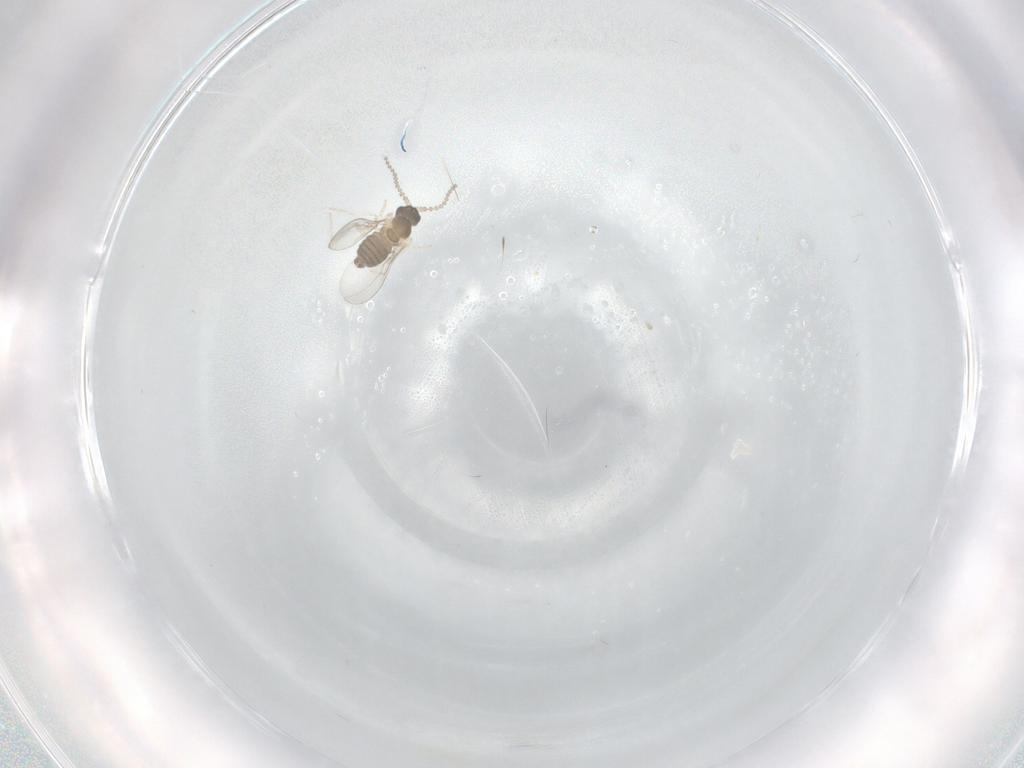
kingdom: Animalia
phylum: Arthropoda
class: Insecta
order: Diptera
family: Cecidomyiidae
